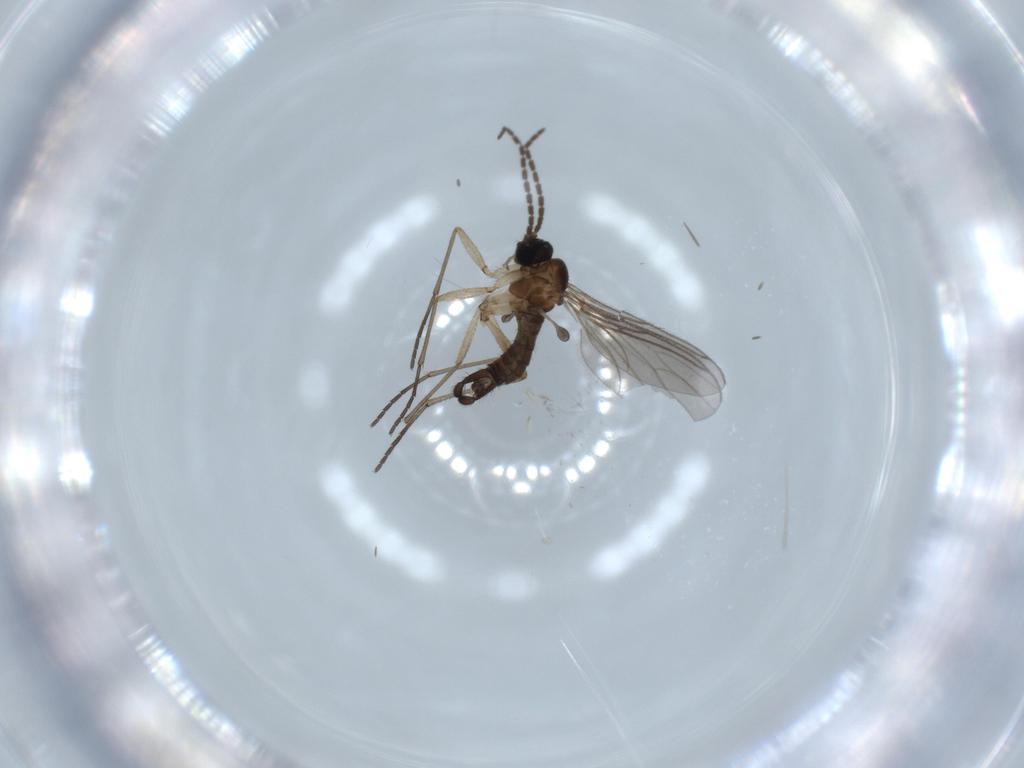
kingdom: Animalia
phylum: Arthropoda
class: Insecta
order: Diptera
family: Sciaridae
